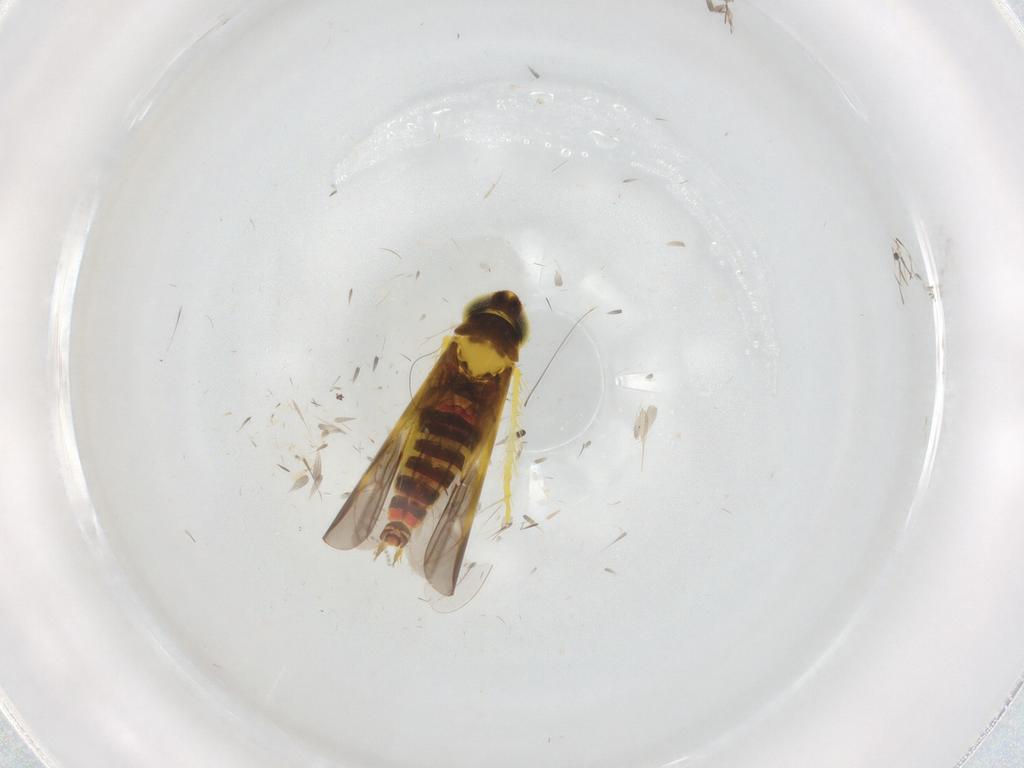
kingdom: Animalia
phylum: Arthropoda
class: Insecta
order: Hemiptera
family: Cicadellidae
